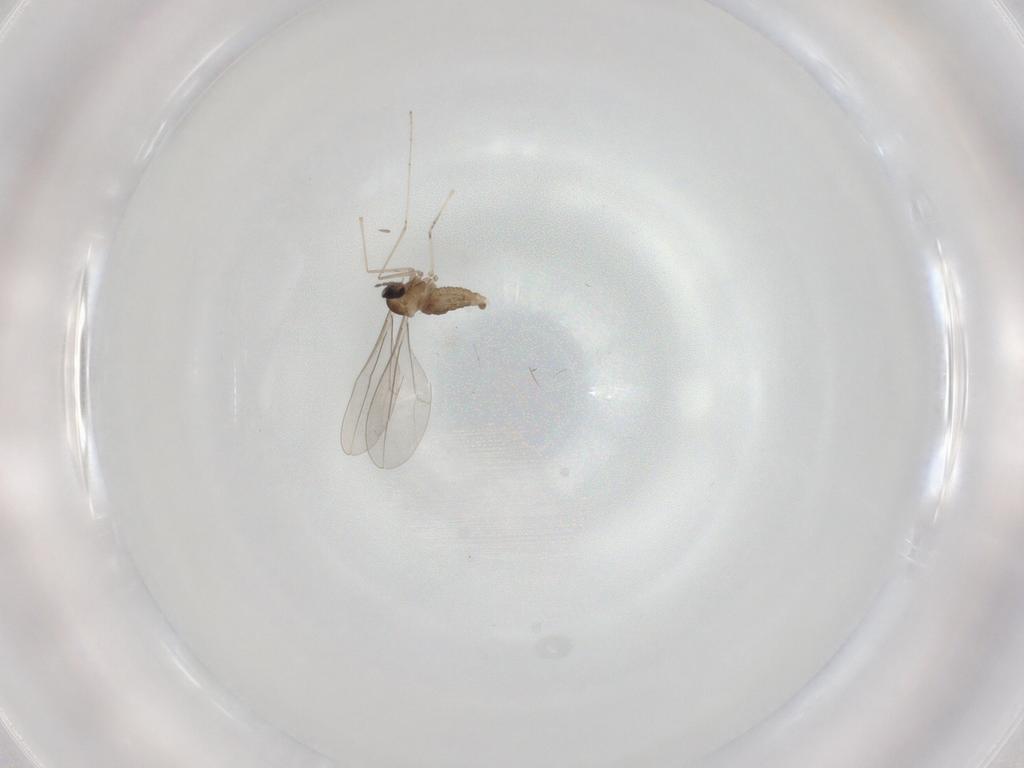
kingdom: Animalia
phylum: Arthropoda
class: Insecta
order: Diptera
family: Cecidomyiidae
